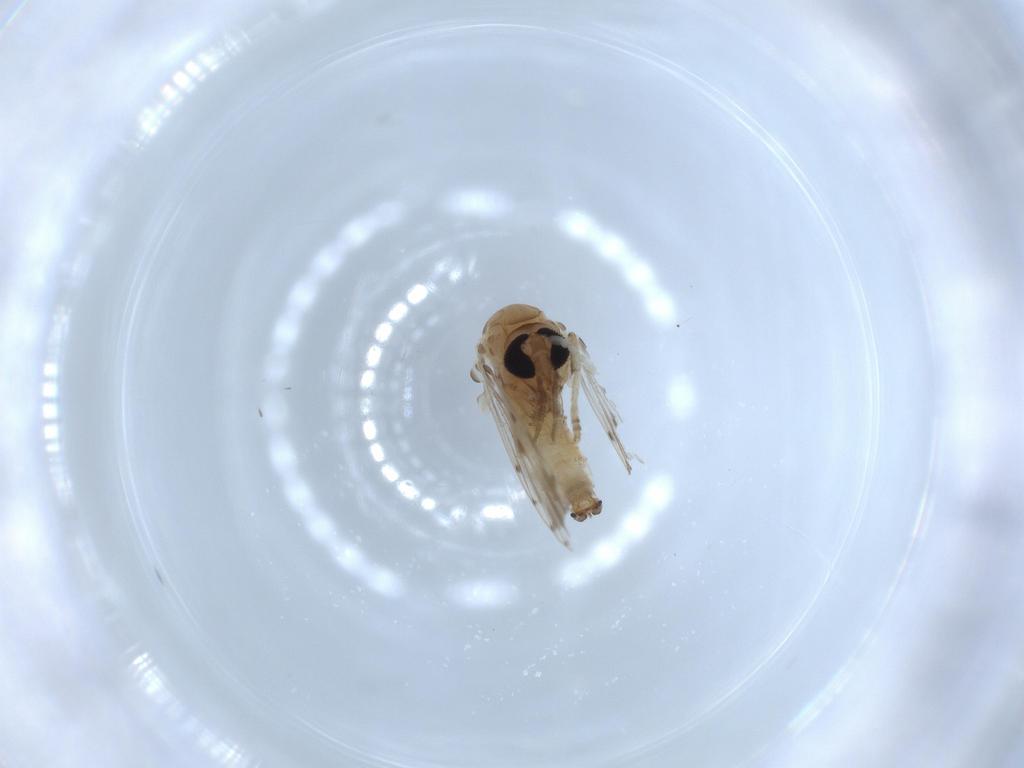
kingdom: Animalia
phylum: Arthropoda
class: Insecta
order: Diptera
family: Psychodidae
